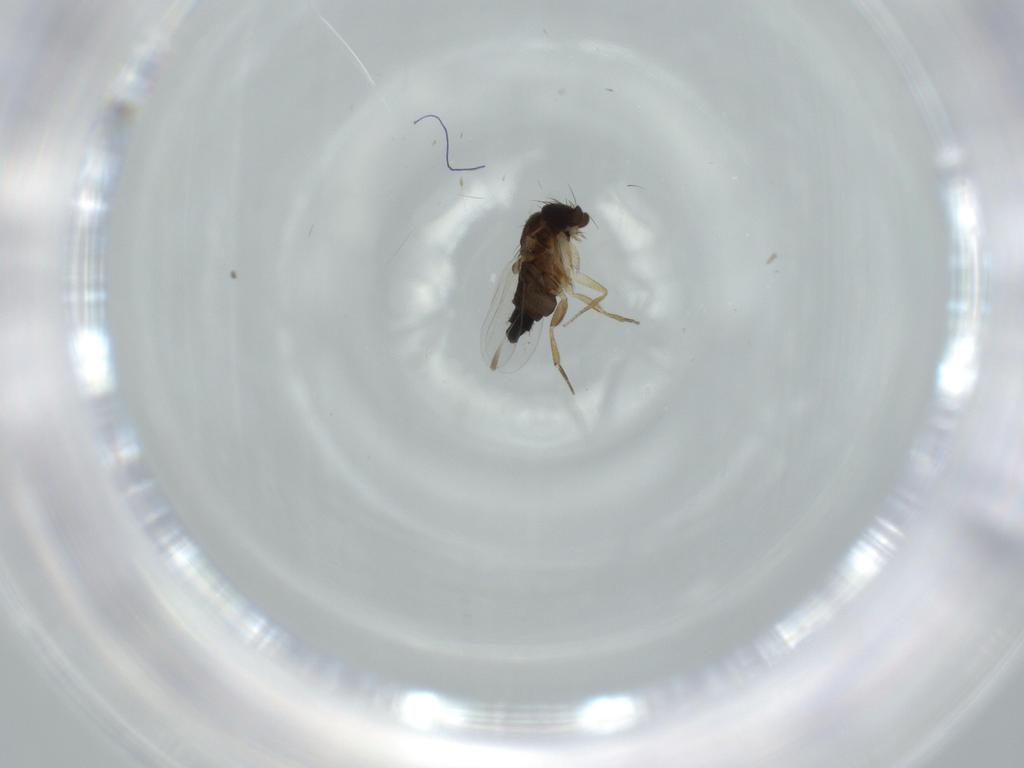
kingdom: Animalia
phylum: Arthropoda
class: Insecta
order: Diptera
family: Phoridae
